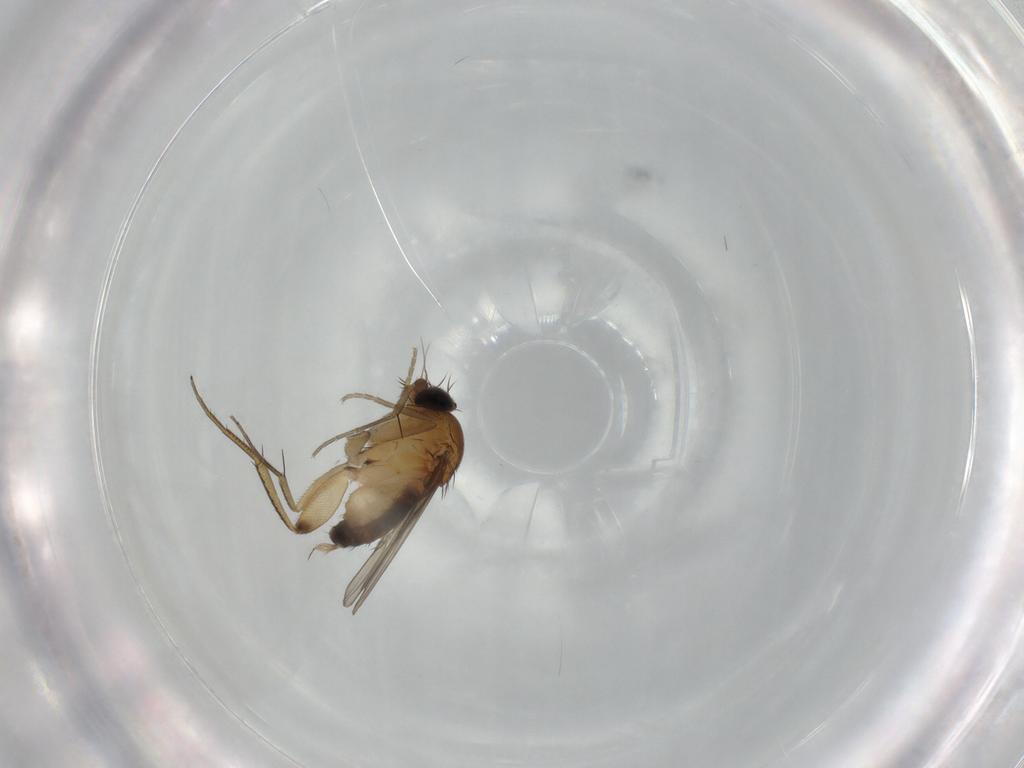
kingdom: Animalia
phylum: Arthropoda
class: Insecta
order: Diptera
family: Phoridae
